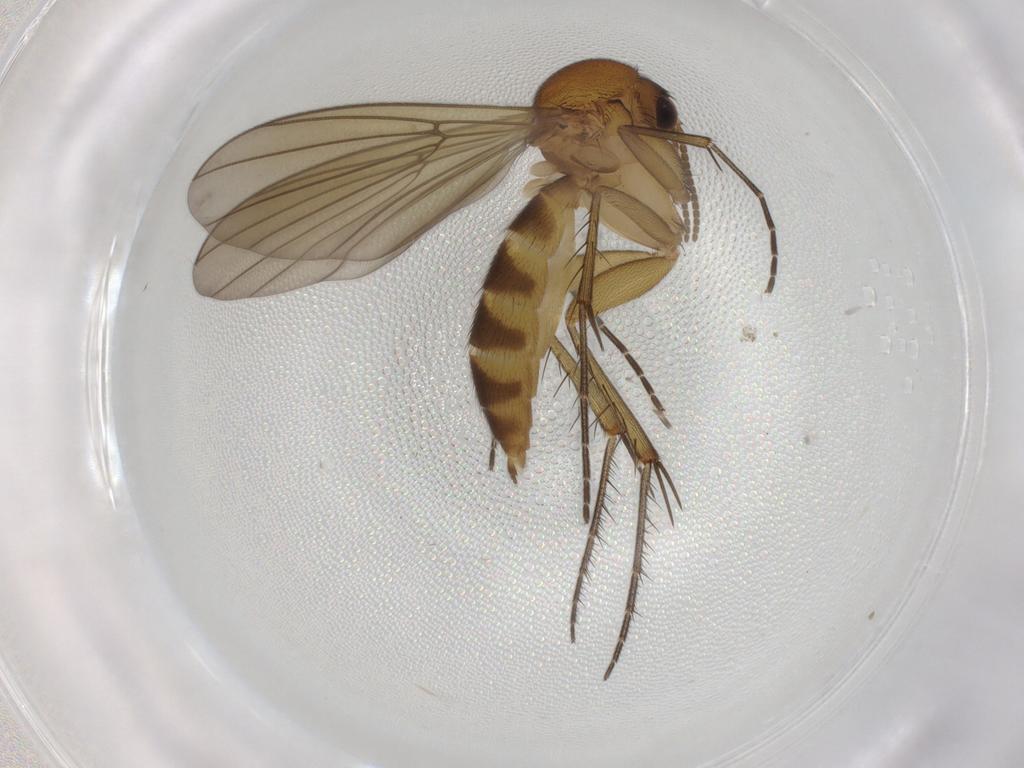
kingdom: Animalia
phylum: Arthropoda
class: Insecta
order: Diptera
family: Mycetophilidae
